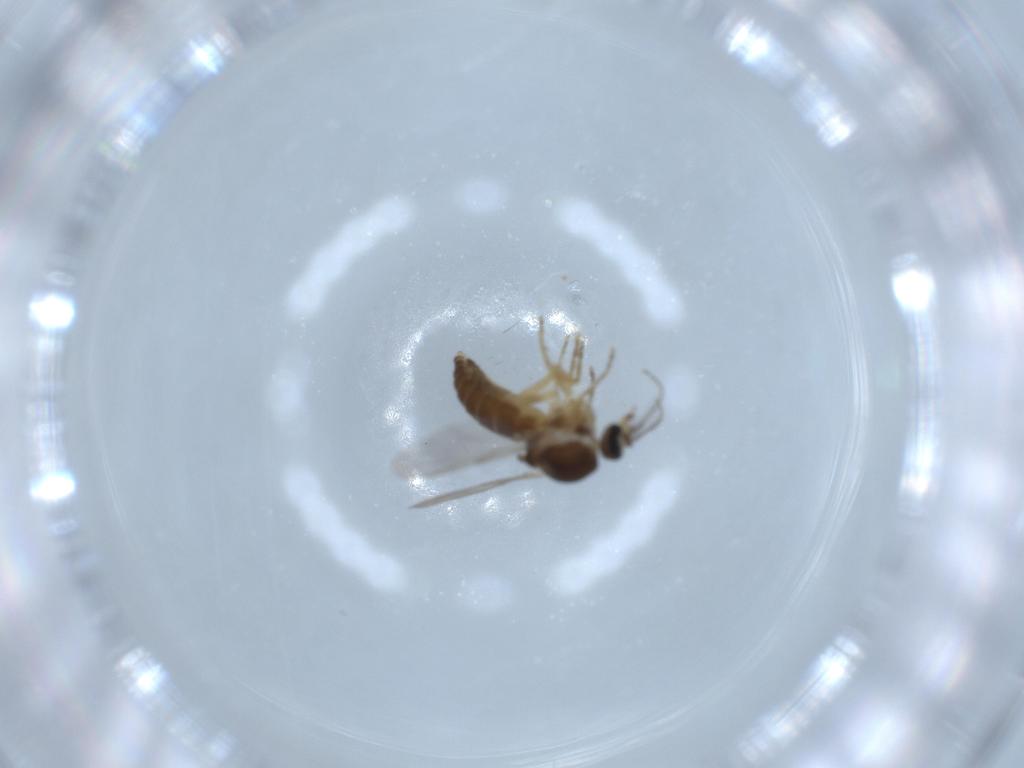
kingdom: Animalia
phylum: Arthropoda
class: Insecta
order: Diptera
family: Ceratopogonidae
